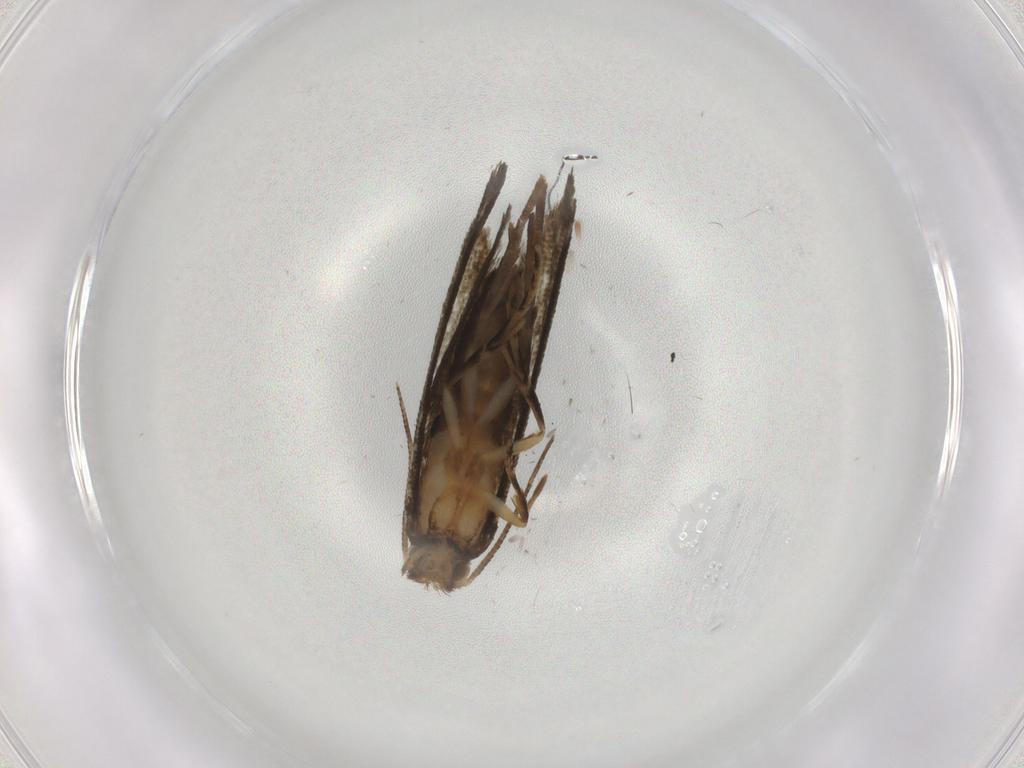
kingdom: Animalia
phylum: Arthropoda
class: Insecta
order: Lepidoptera
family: Crambidae
